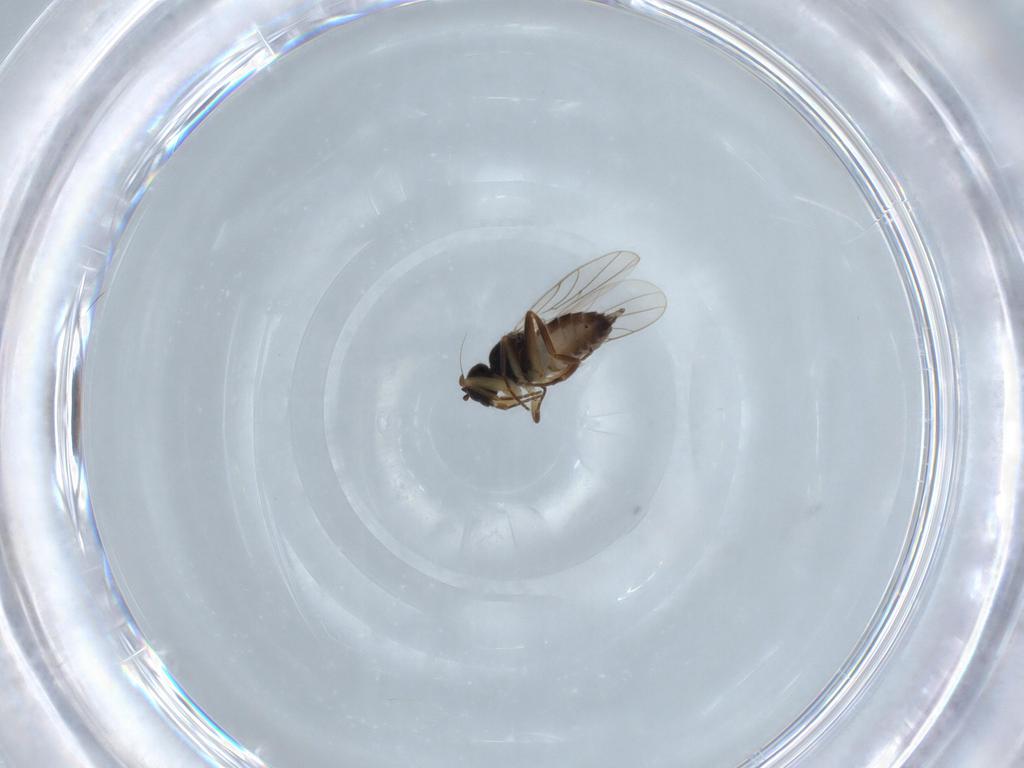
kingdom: Animalia
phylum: Arthropoda
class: Insecta
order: Diptera
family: Hybotidae
